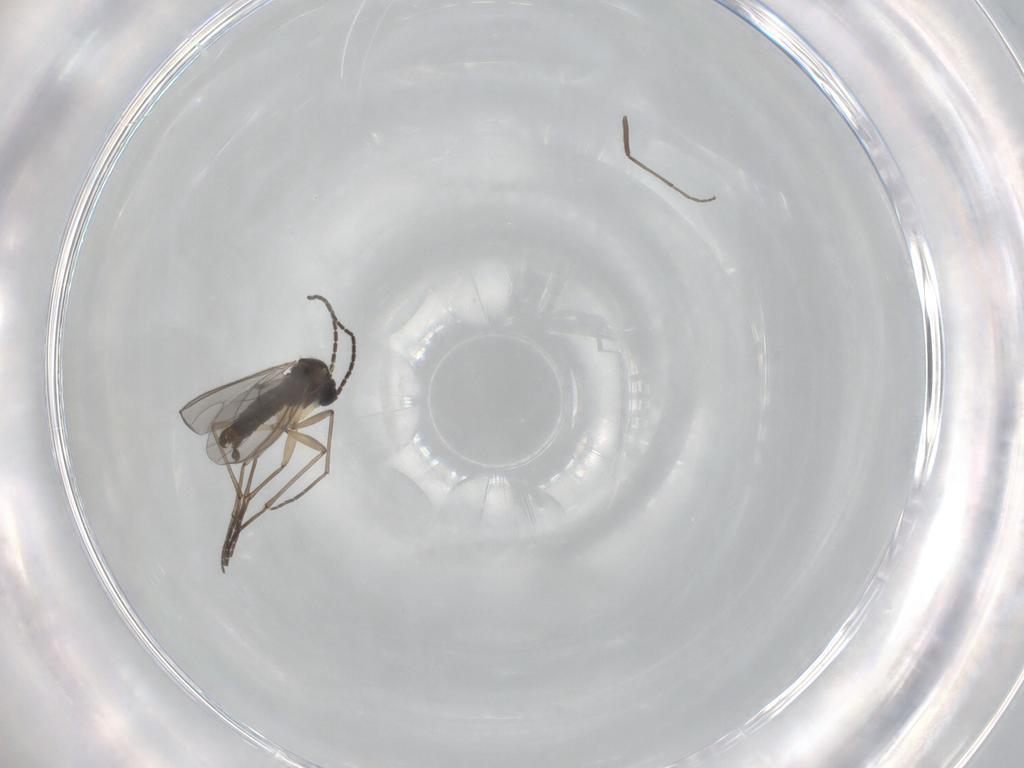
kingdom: Animalia
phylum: Arthropoda
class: Insecta
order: Diptera
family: Sciaridae
